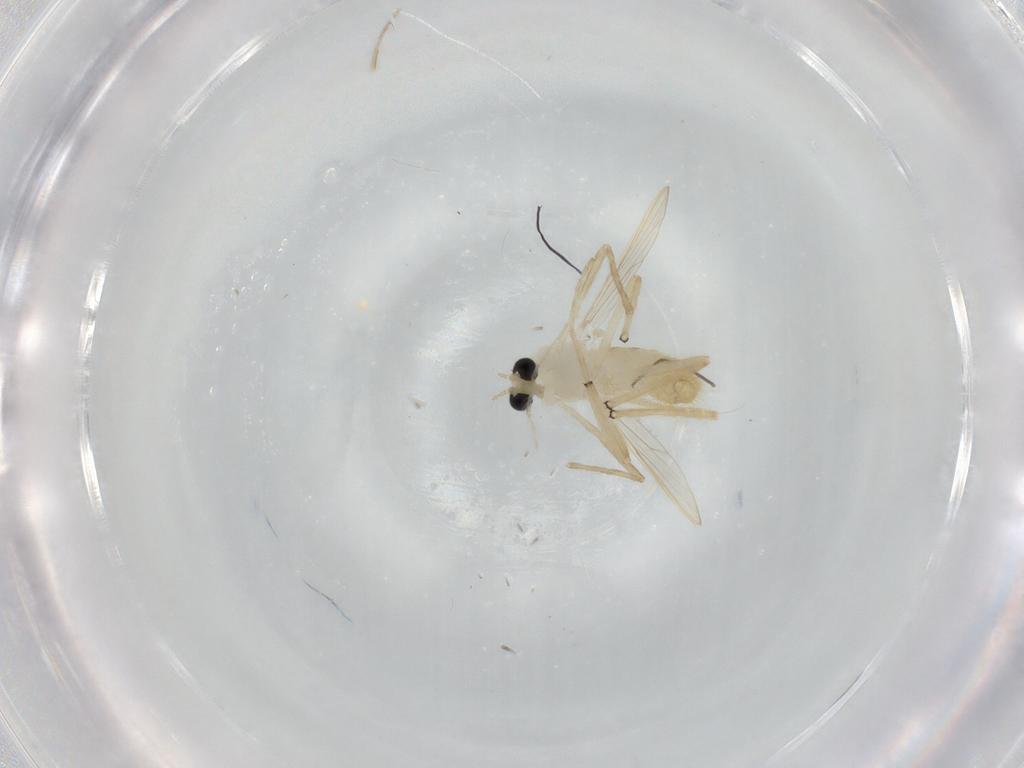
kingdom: Animalia
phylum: Arthropoda
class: Insecta
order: Diptera
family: Chironomidae
